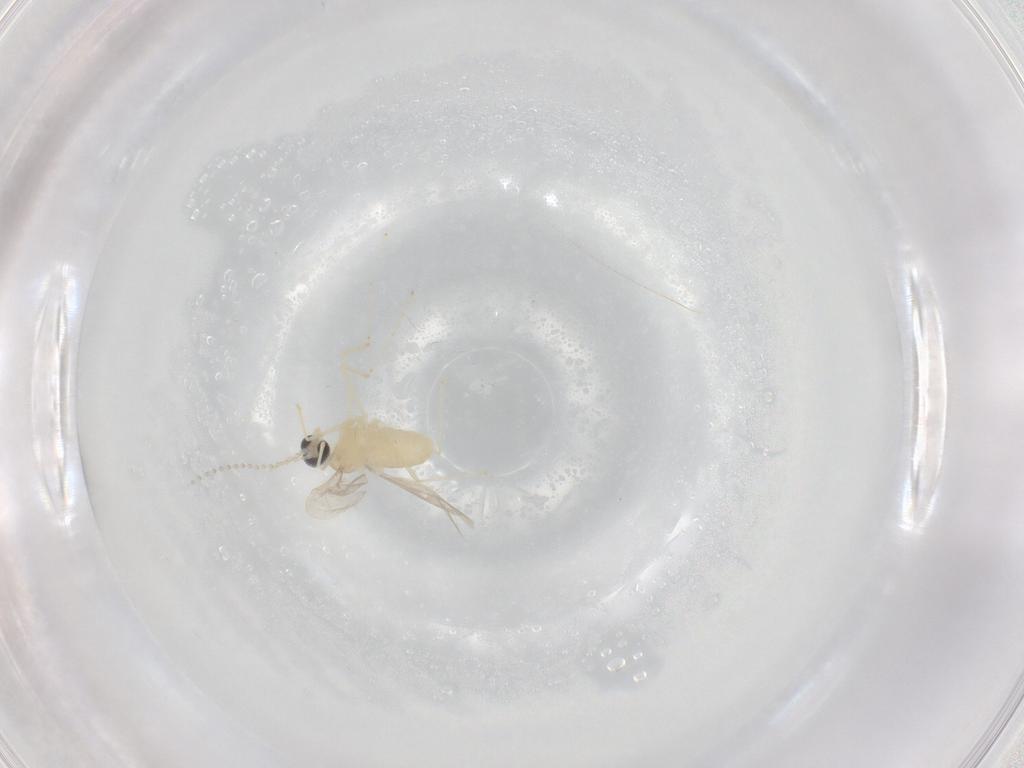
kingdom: Animalia
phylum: Arthropoda
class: Insecta
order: Diptera
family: Cecidomyiidae
